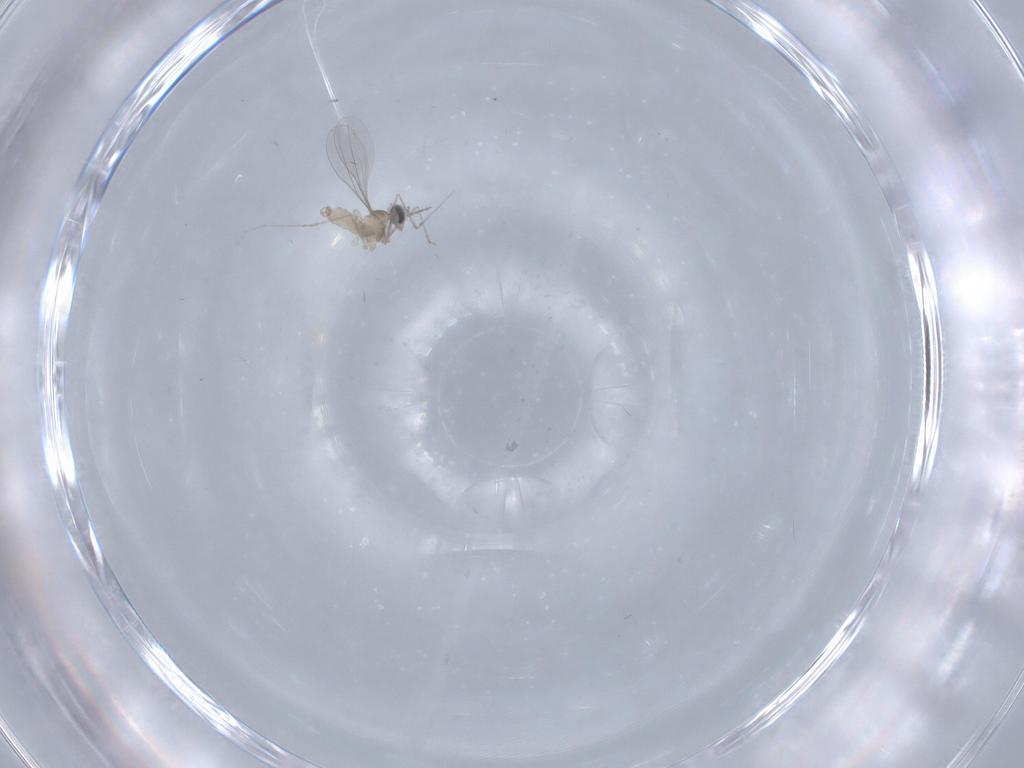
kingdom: Animalia
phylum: Arthropoda
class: Insecta
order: Diptera
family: Cecidomyiidae
